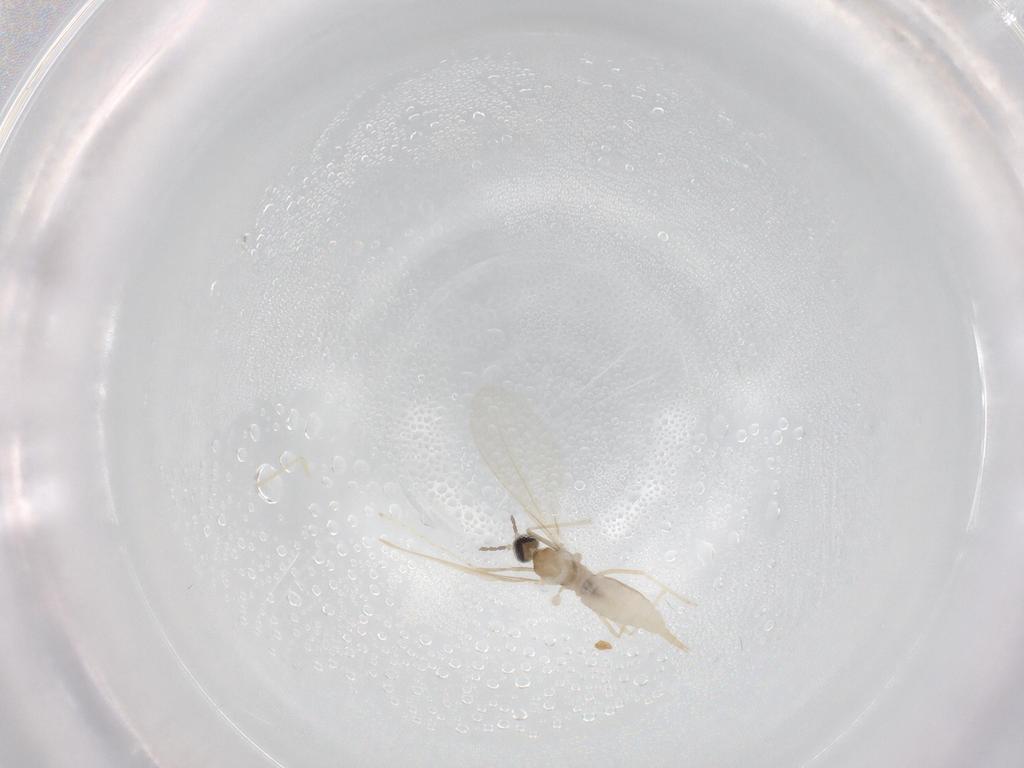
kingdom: Animalia
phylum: Arthropoda
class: Insecta
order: Diptera
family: Cecidomyiidae
